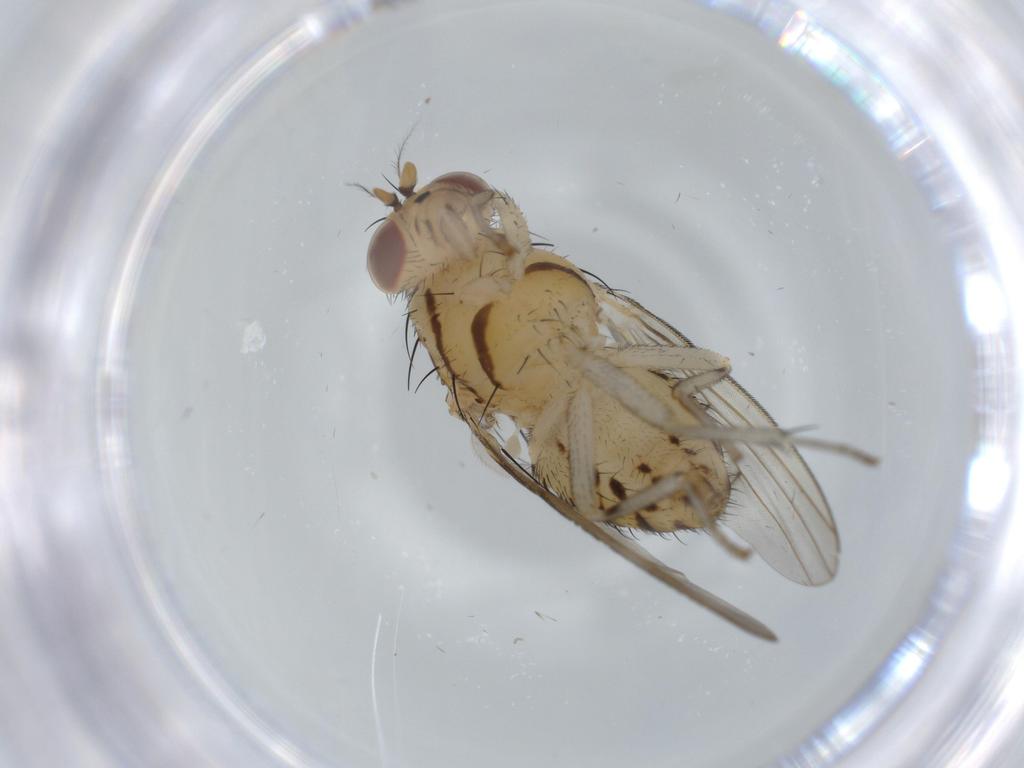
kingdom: Animalia
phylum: Arthropoda
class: Insecta
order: Diptera
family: Lauxaniidae
